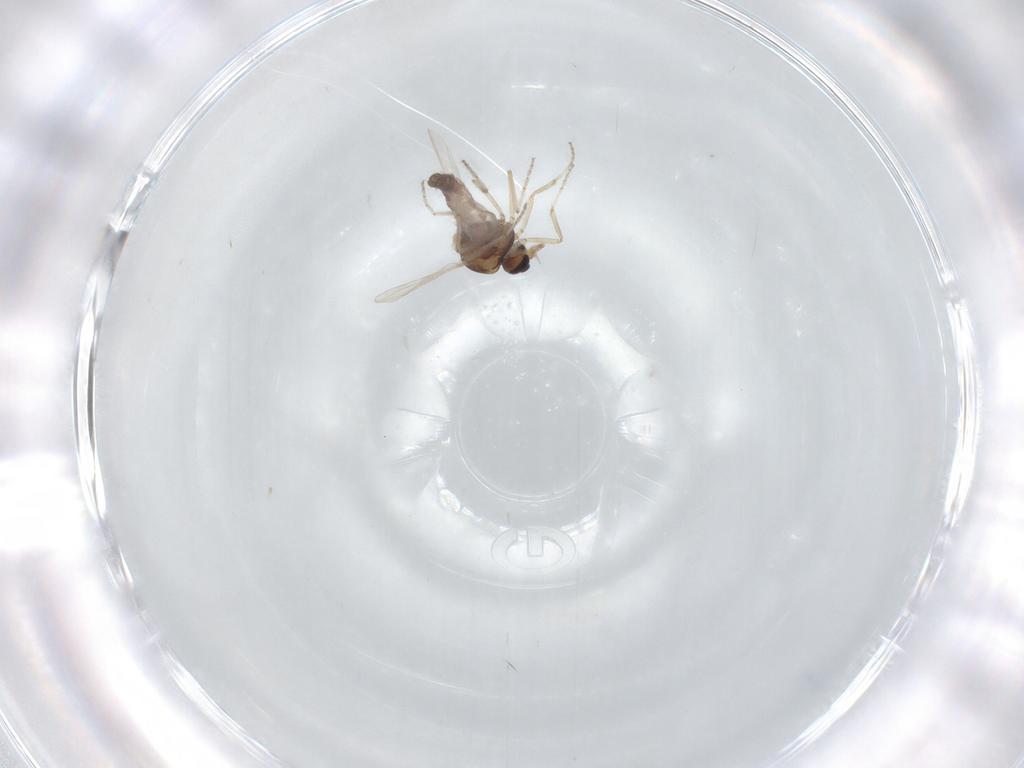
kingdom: Animalia
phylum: Arthropoda
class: Insecta
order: Diptera
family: Ceratopogonidae
